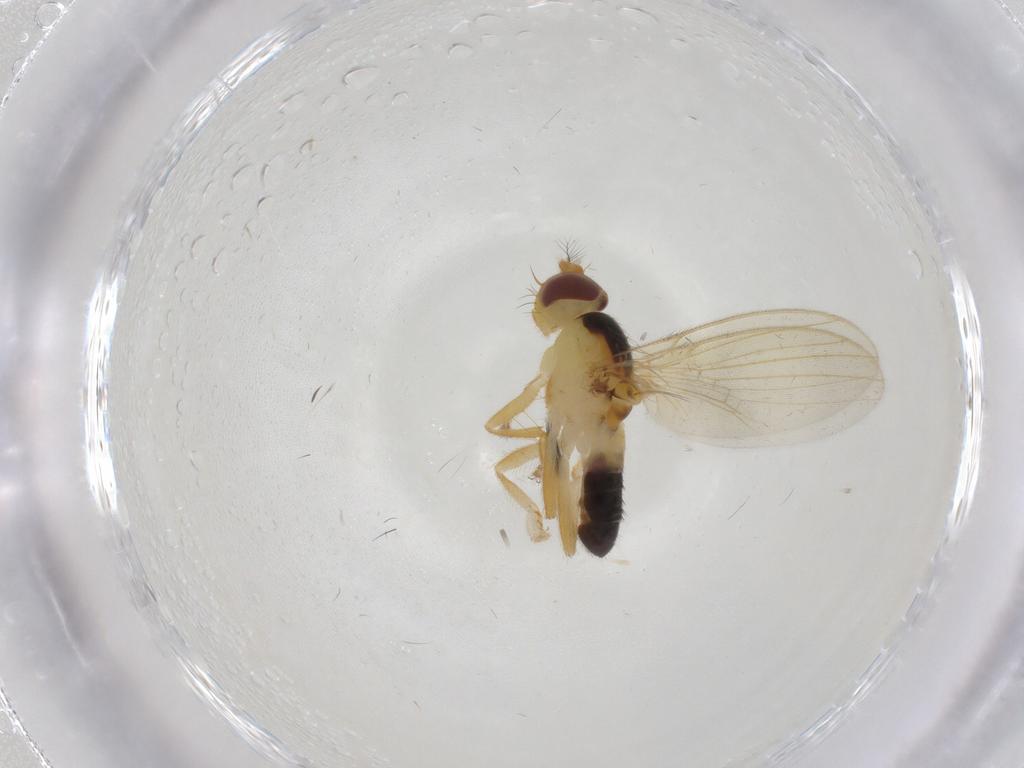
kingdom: Animalia
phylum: Arthropoda
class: Insecta
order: Diptera
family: Periscelididae
